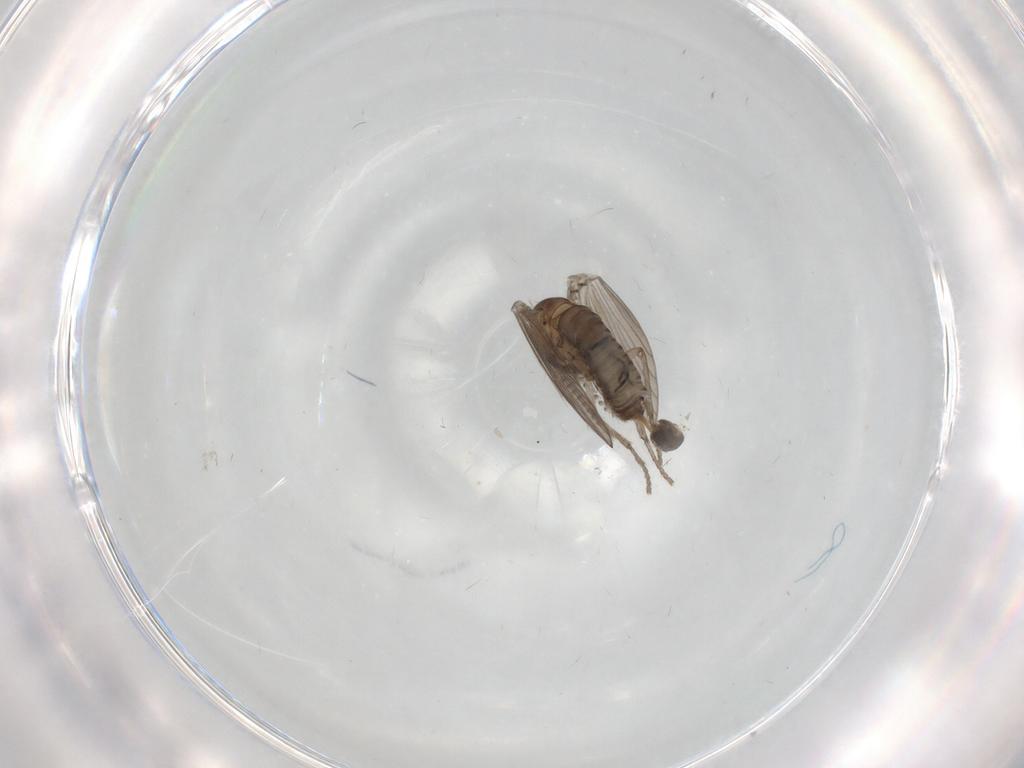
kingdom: Animalia
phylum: Arthropoda
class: Insecta
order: Diptera
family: Psychodidae
